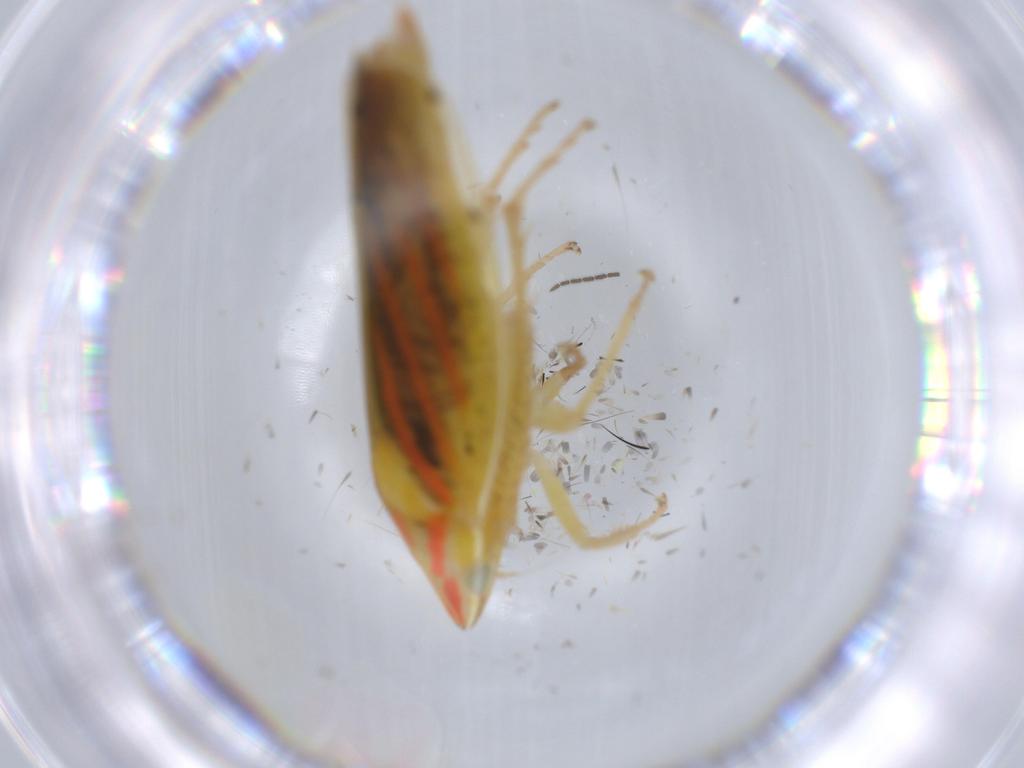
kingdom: Animalia
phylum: Arthropoda
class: Insecta
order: Hemiptera
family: Cicadellidae
